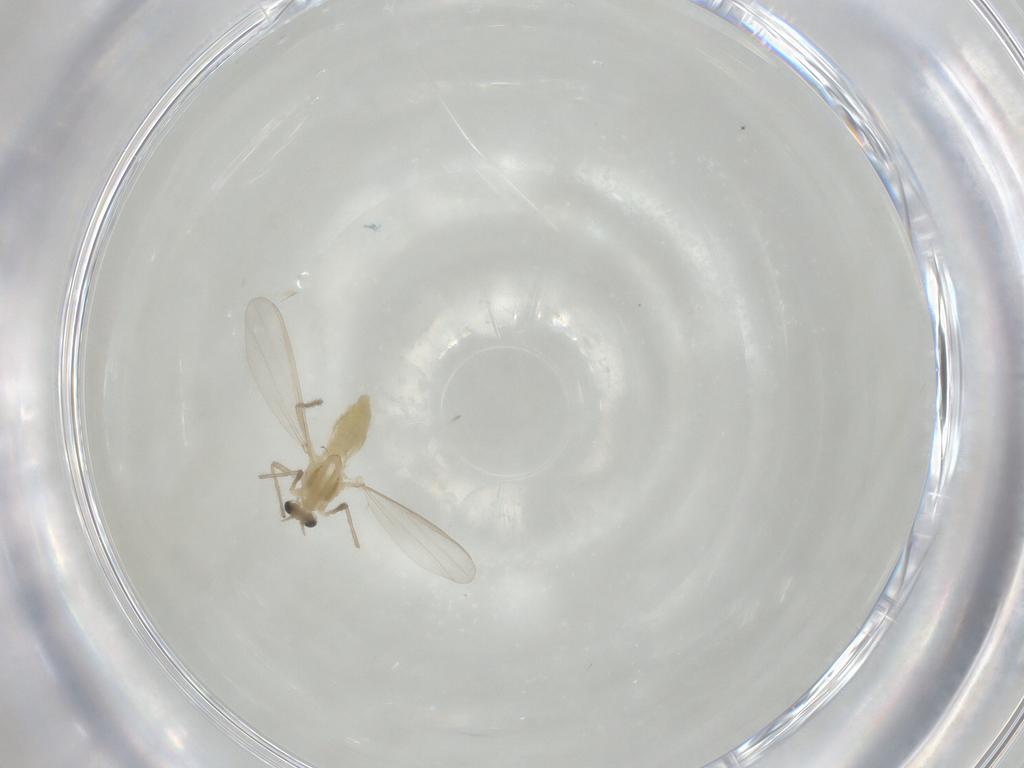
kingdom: Animalia
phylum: Arthropoda
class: Insecta
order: Diptera
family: Chironomidae
